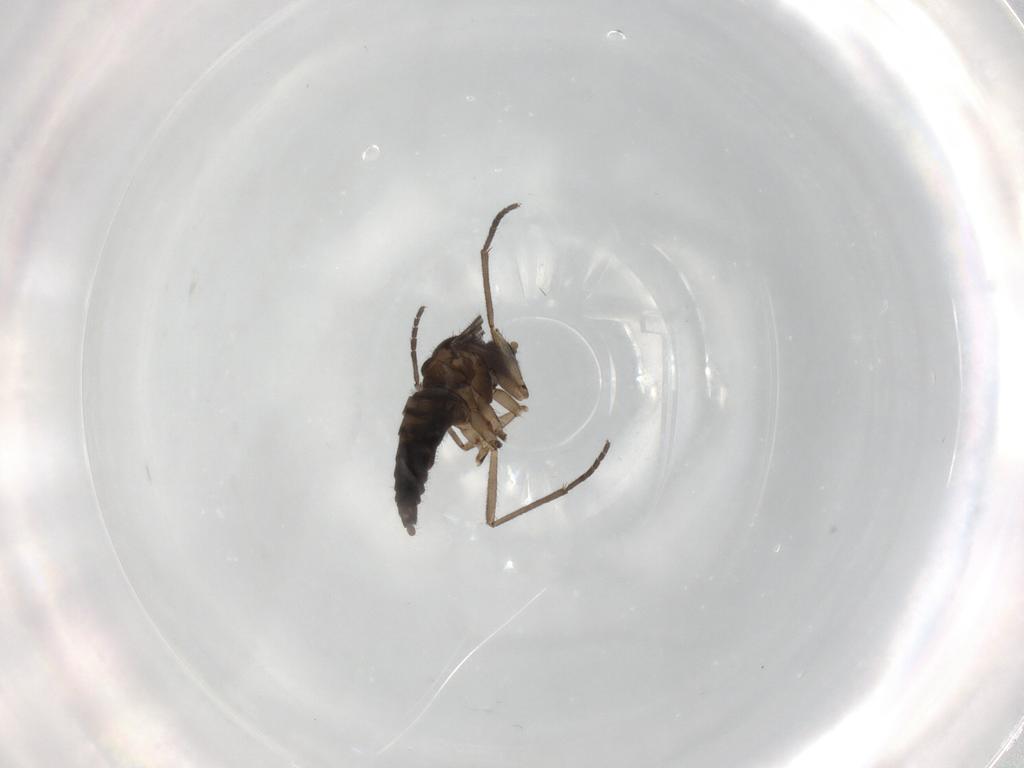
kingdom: Animalia
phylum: Arthropoda
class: Insecta
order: Diptera
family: Sciaridae
